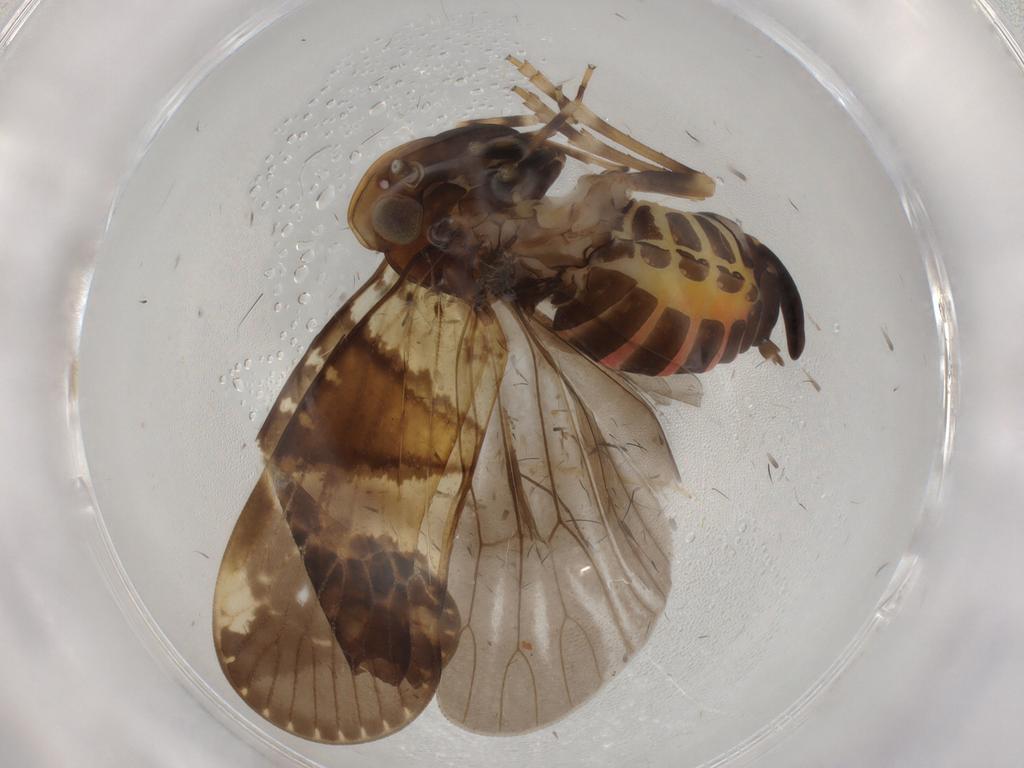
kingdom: Animalia
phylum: Arthropoda
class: Insecta
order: Hemiptera
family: Cixiidae
